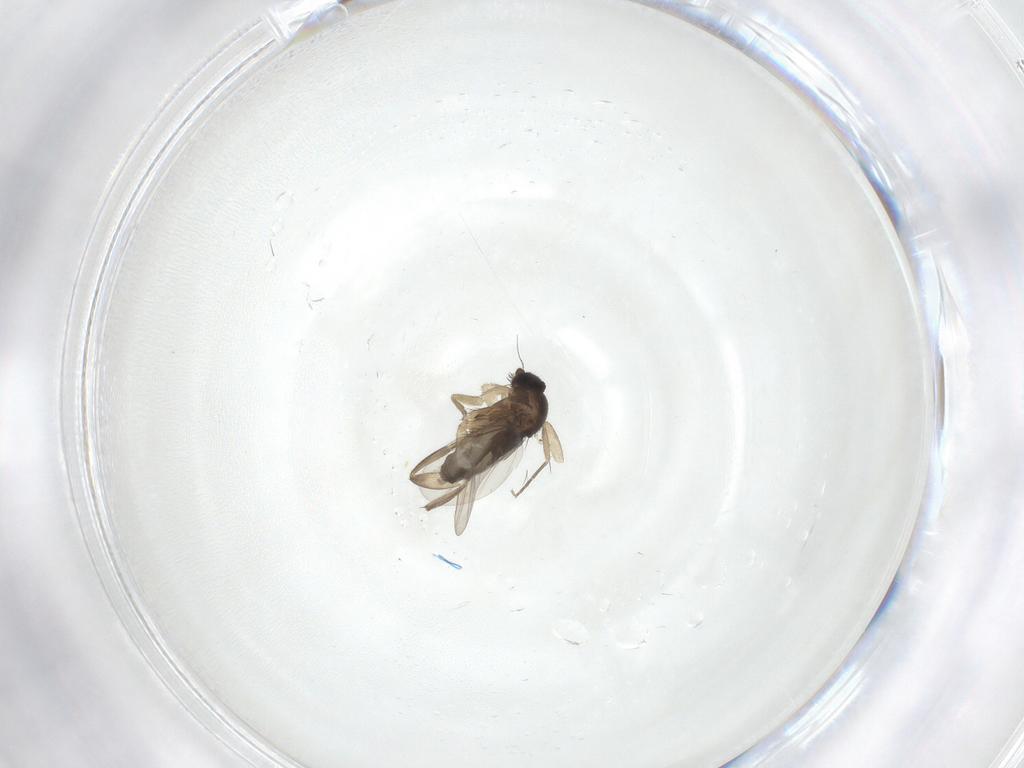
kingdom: Animalia
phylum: Arthropoda
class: Insecta
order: Diptera
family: Phoridae
